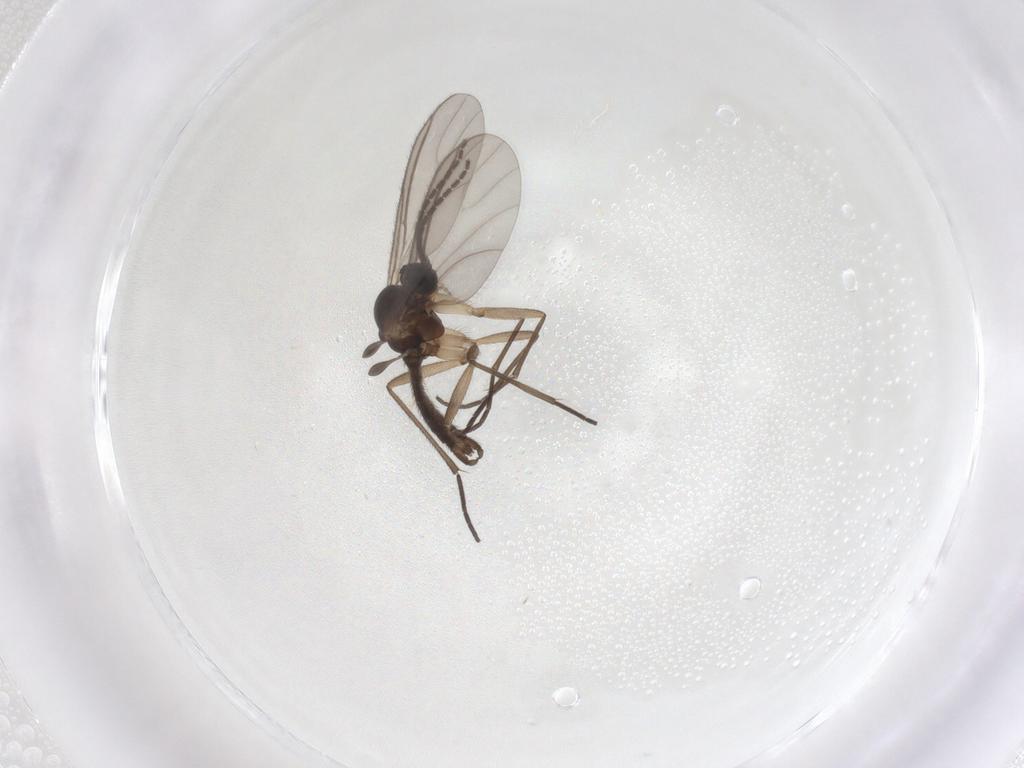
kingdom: Animalia
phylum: Arthropoda
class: Insecta
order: Diptera
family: Sciaridae
